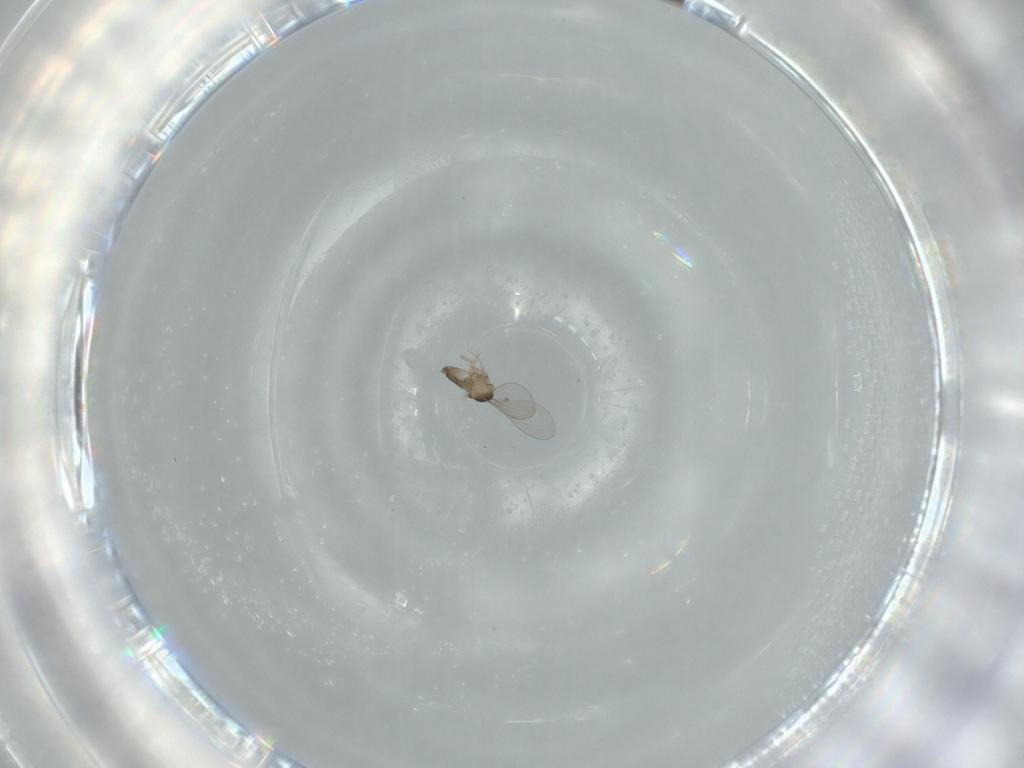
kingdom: Animalia
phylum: Arthropoda
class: Insecta
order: Diptera
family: Cecidomyiidae
